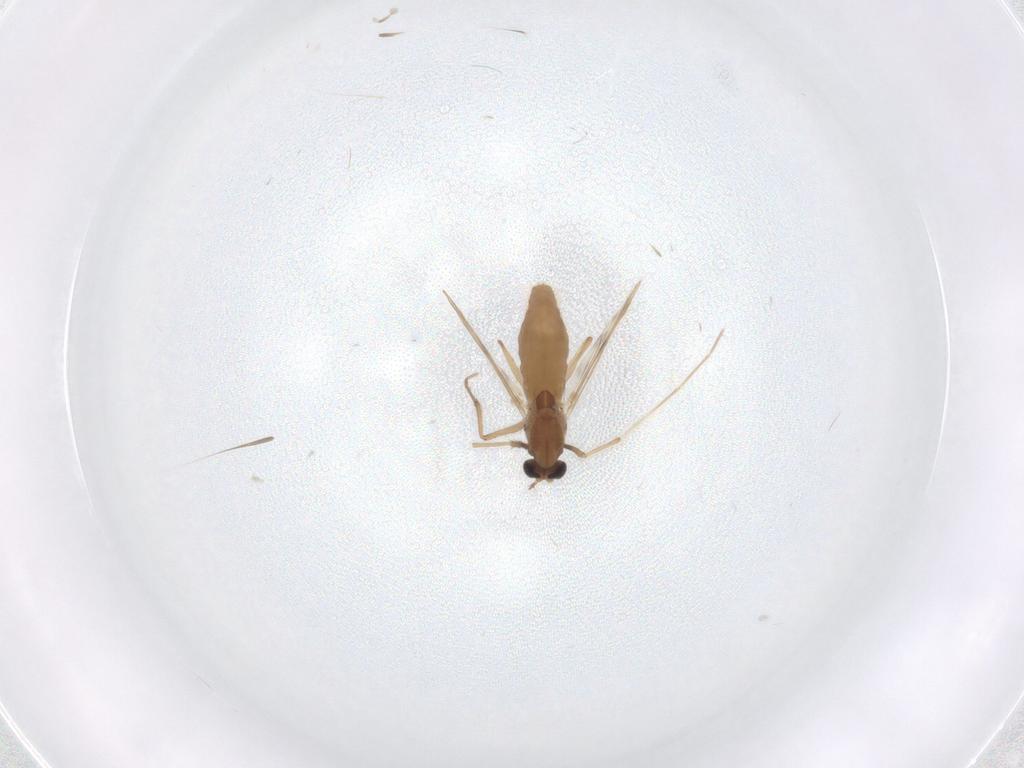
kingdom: Animalia
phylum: Arthropoda
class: Insecta
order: Diptera
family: Chironomidae
